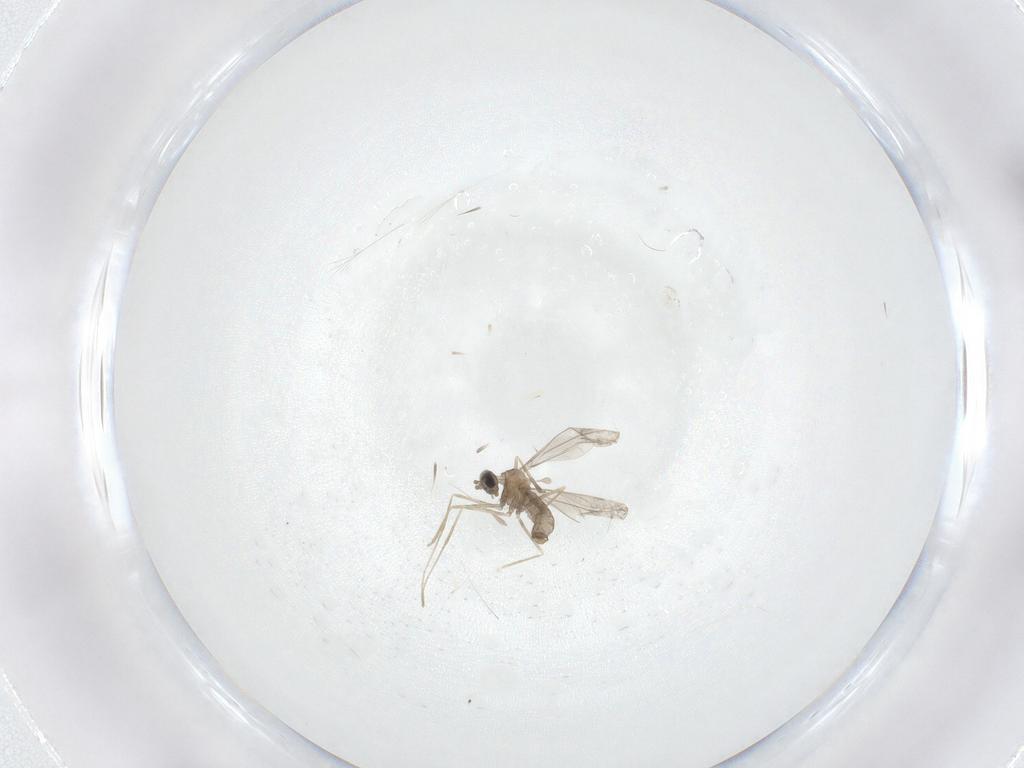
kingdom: Animalia
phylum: Arthropoda
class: Insecta
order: Diptera
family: Cecidomyiidae
